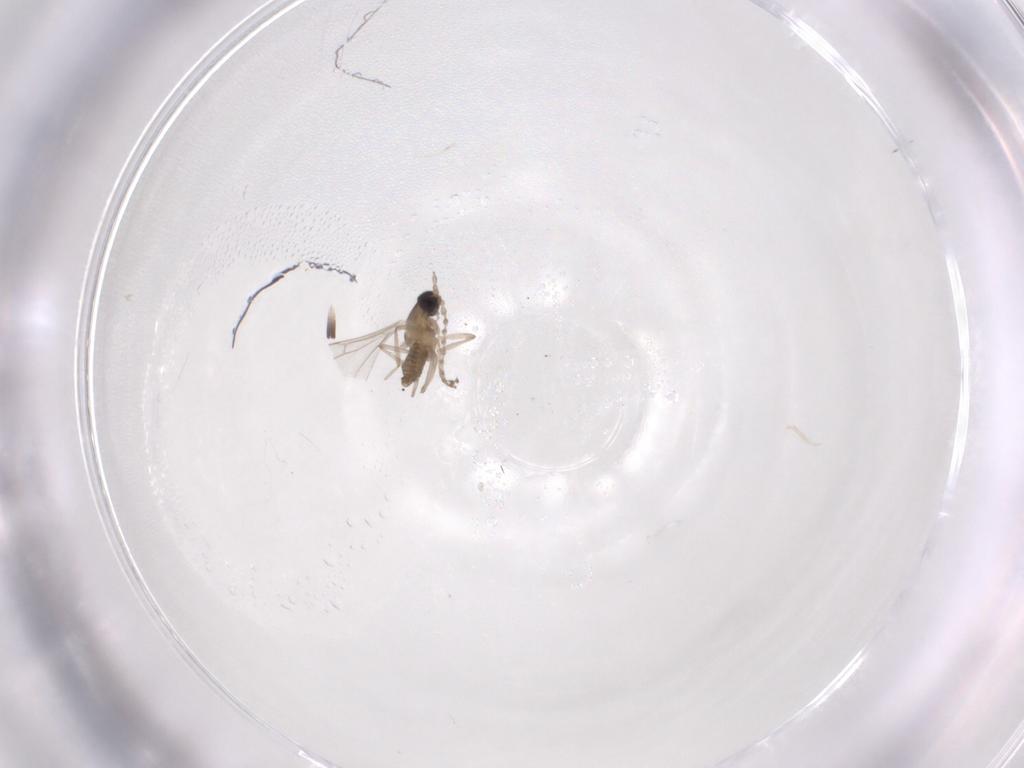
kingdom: Animalia
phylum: Arthropoda
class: Insecta
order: Diptera
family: Cecidomyiidae
